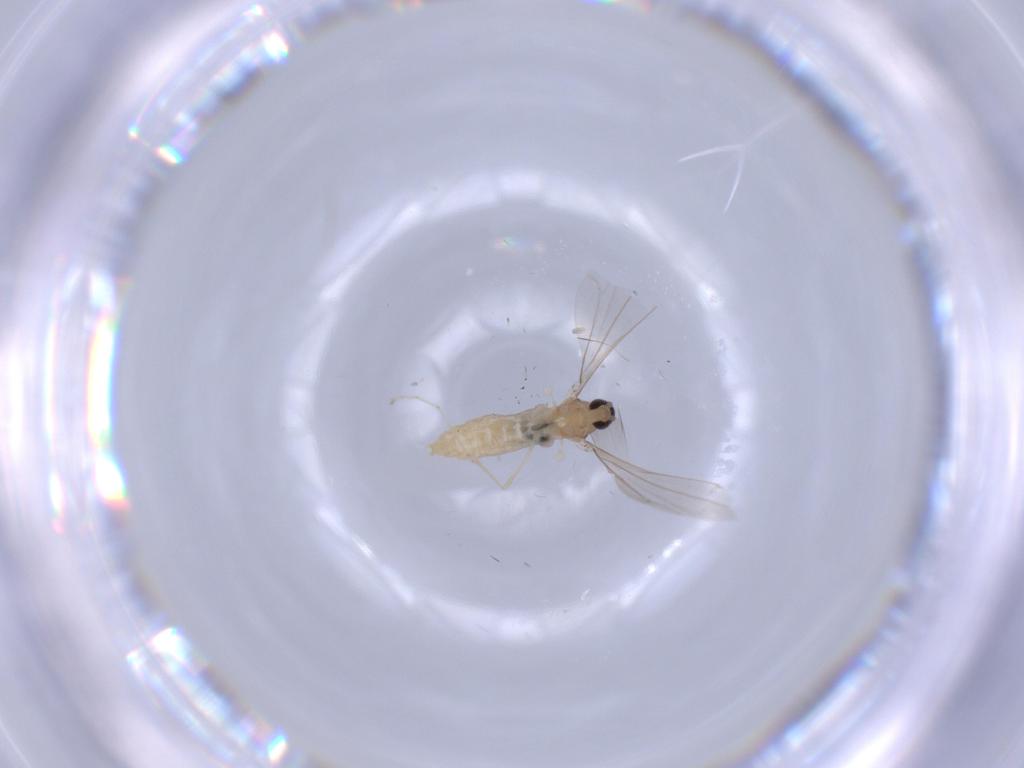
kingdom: Animalia
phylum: Arthropoda
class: Insecta
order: Diptera
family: Cecidomyiidae
